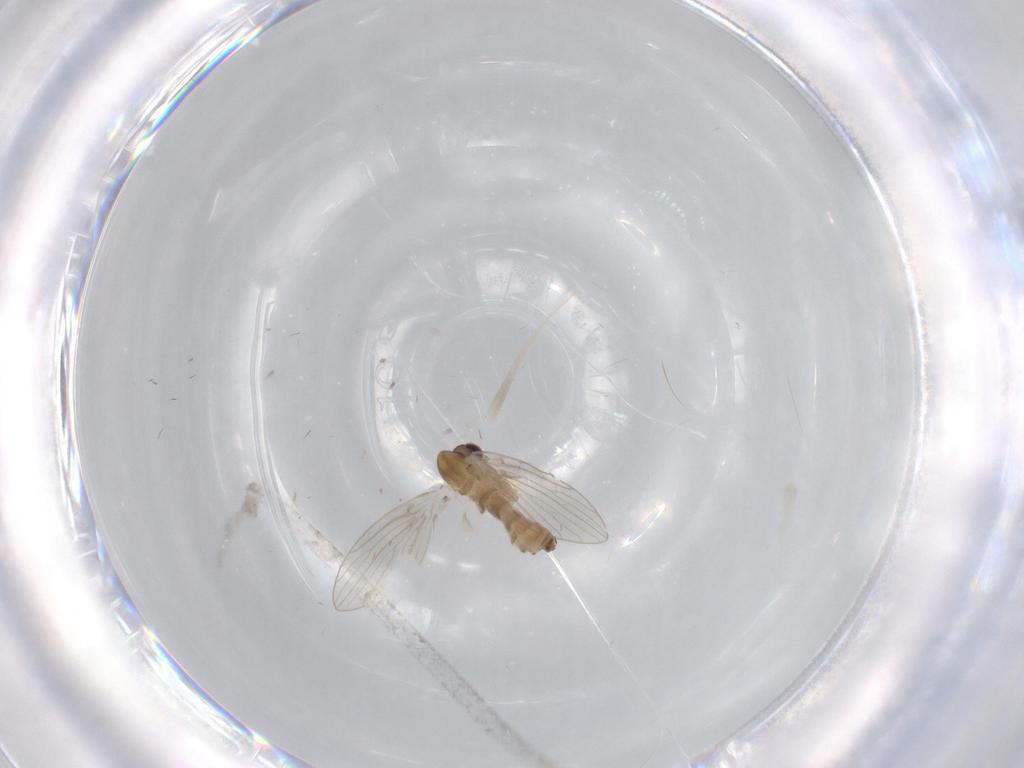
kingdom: Animalia
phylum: Arthropoda
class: Insecta
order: Diptera
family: Chironomidae
